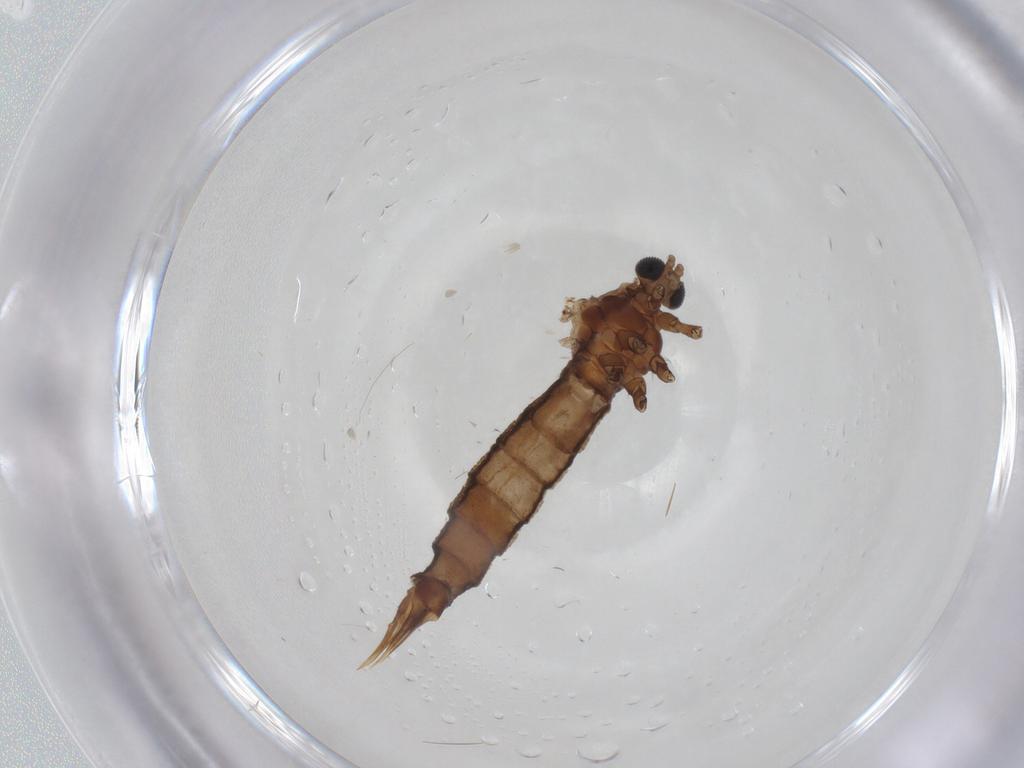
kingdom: Animalia
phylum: Arthropoda
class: Insecta
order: Diptera
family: Limoniidae
